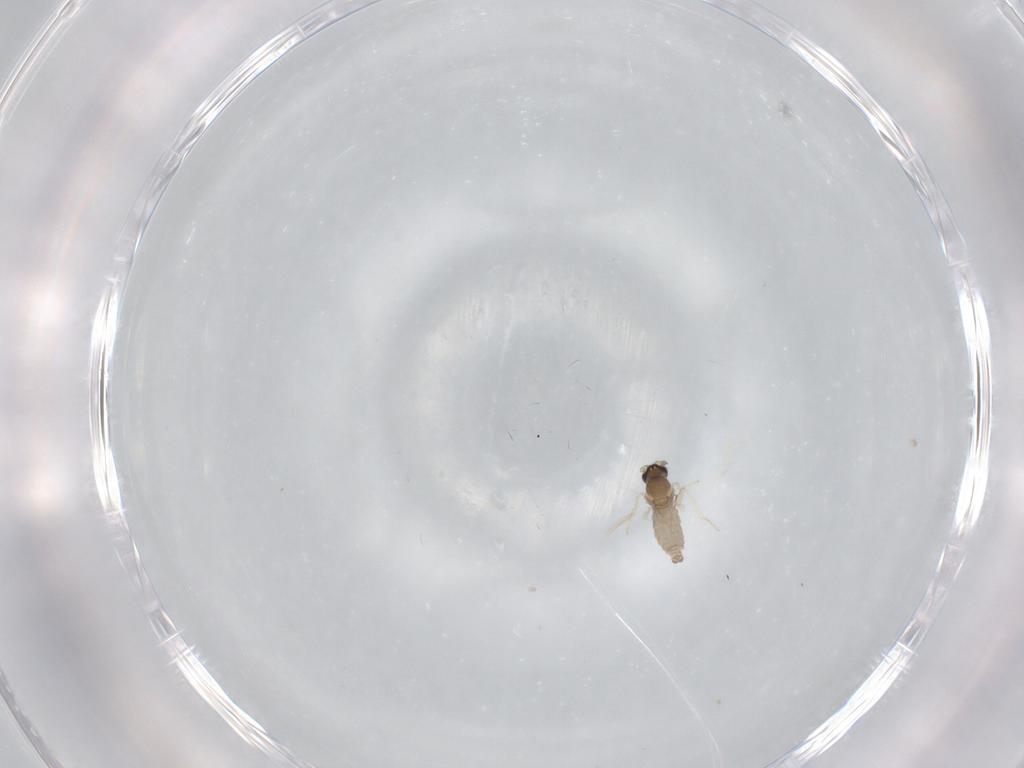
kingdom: Animalia
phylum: Arthropoda
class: Insecta
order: Diptera
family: Cecidomyiidae
